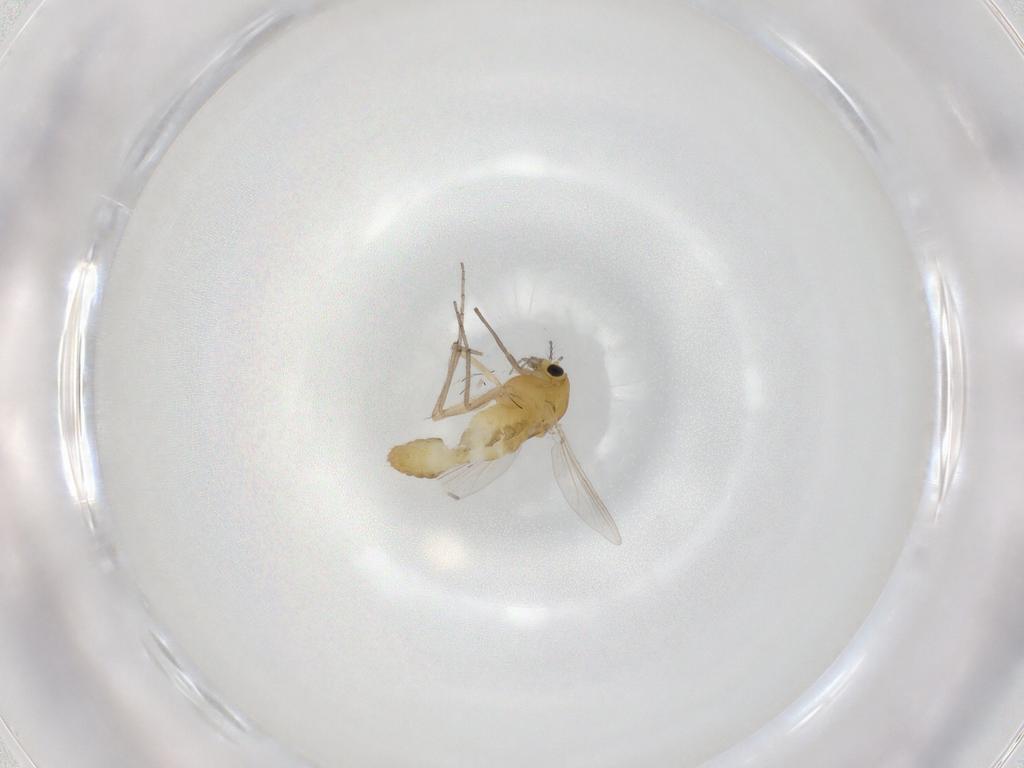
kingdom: Animalia
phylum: Arthropoda
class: Insecta
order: Diptera
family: Chironomidae
